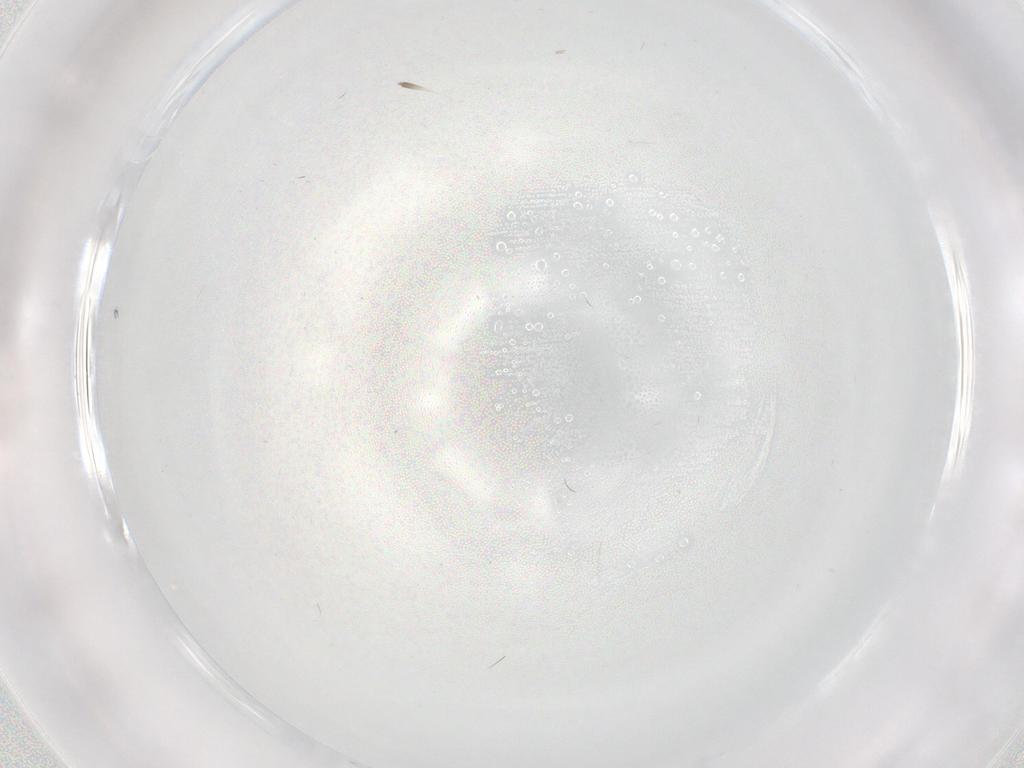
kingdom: Animalia
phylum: Arthropoda
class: Insecta
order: Diptera
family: Cecidomyiidae
